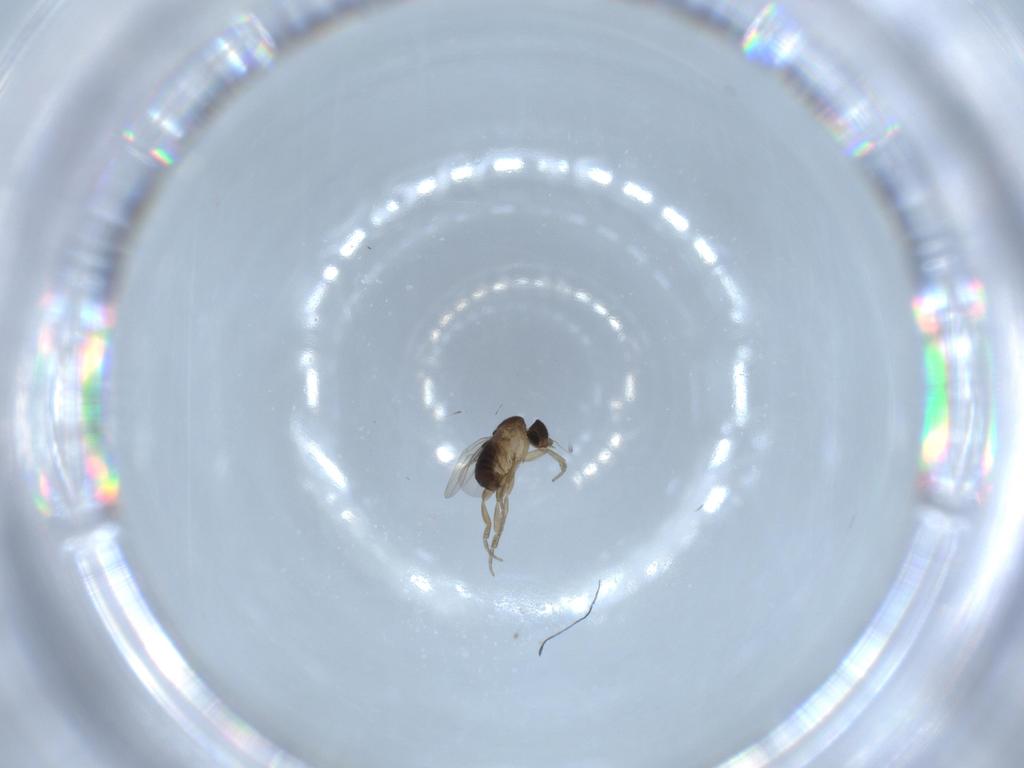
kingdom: Animalia
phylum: Arthropoda
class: Insecta
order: Diptera
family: Phoridae
